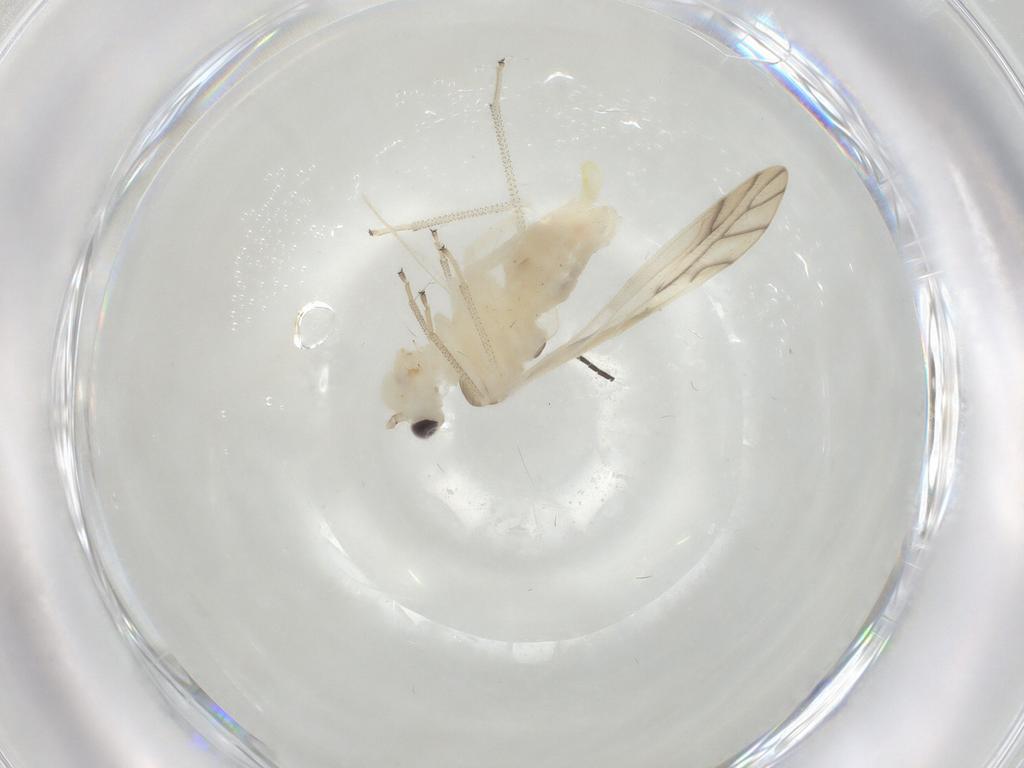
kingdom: Animalia
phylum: Arthropoda
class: Insecta
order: Psocodea
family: Caeciliusidae
